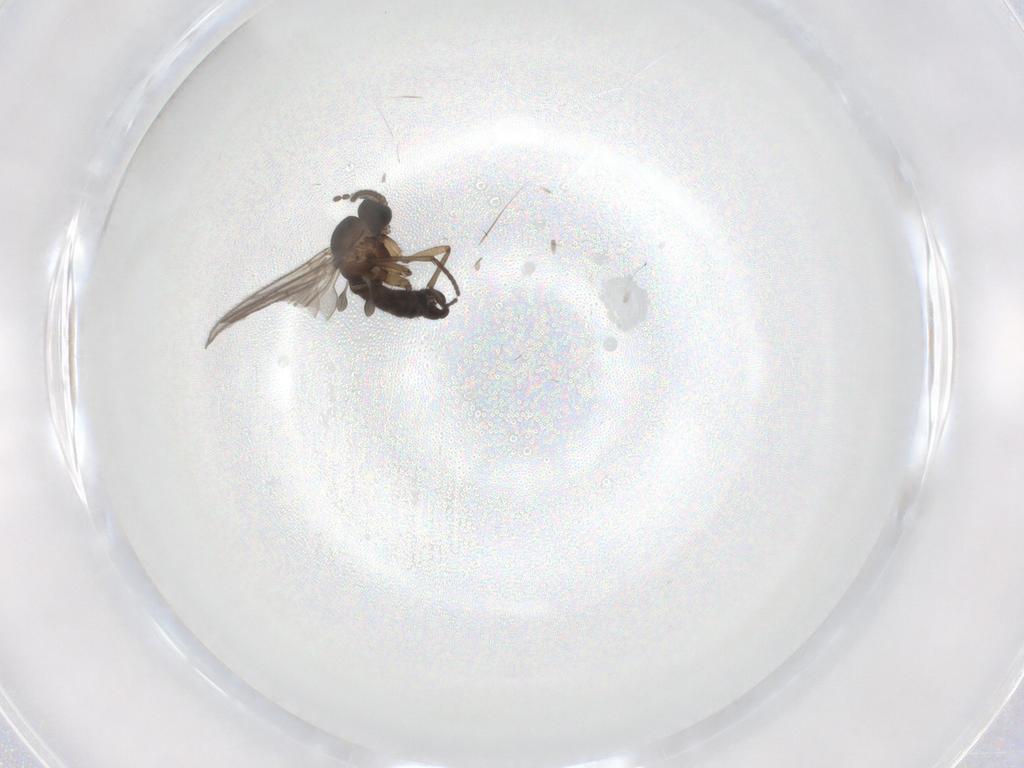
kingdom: Animalia
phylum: Arthropoda
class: Insecta
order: Diptera
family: Sciaridae
